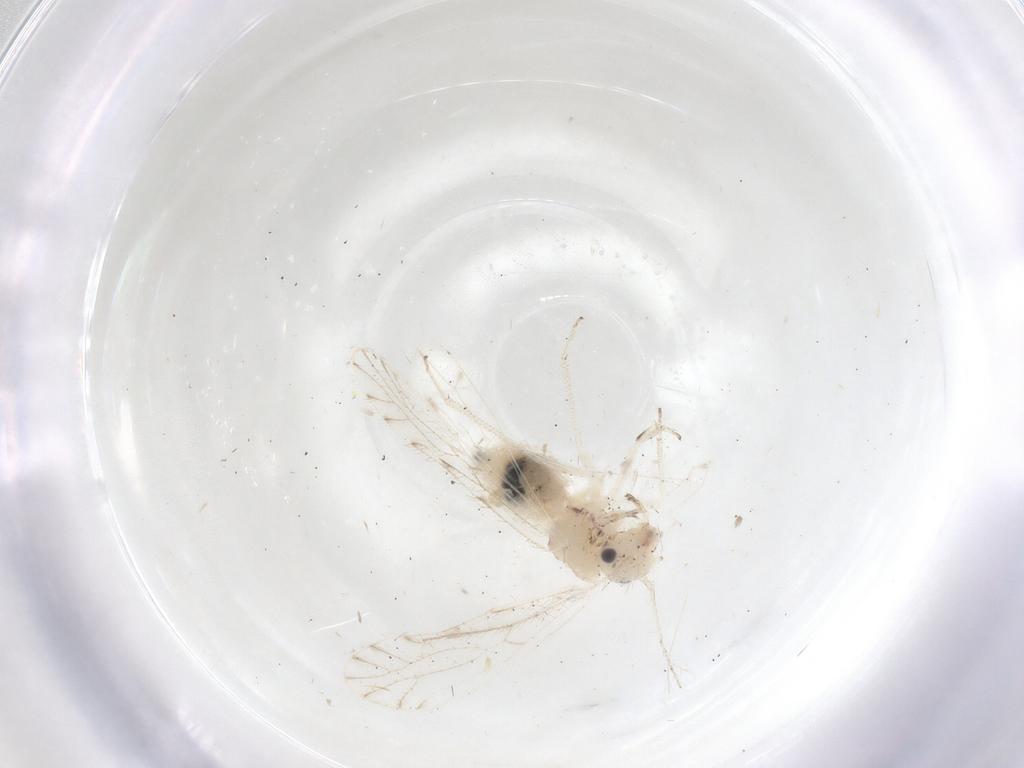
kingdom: Animalia
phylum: Arthropoda
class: Insecta
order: Psocodea
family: Trichopsocidae
